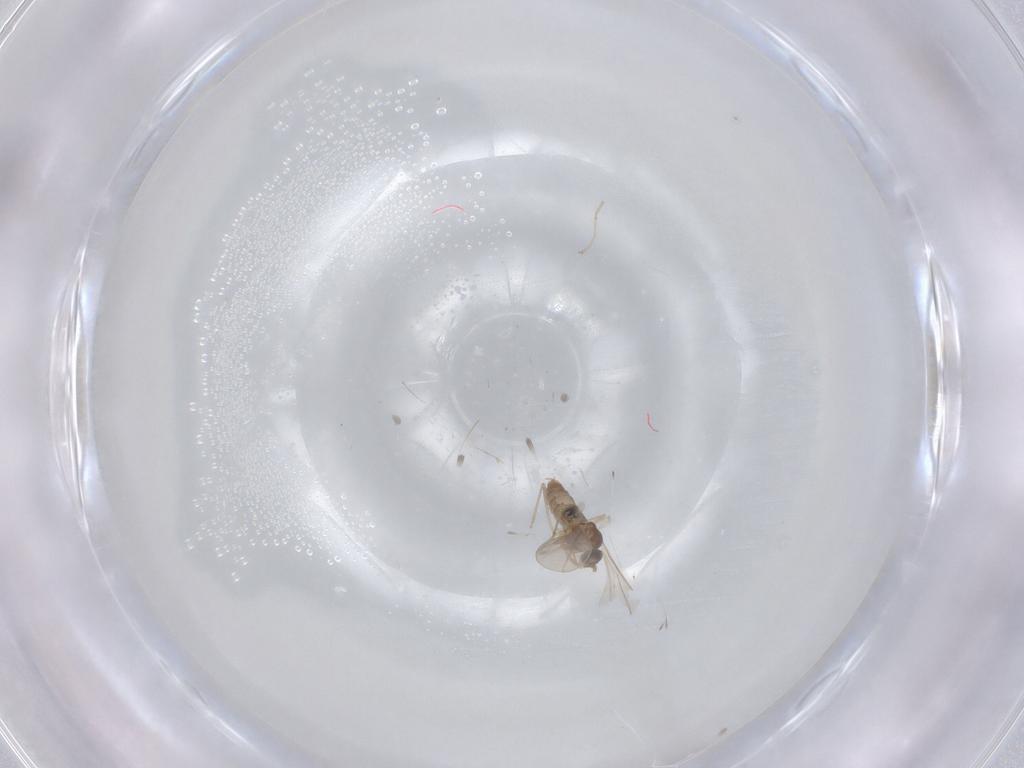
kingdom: Animalia
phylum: Arthropoda
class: Insecta
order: Diptera
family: Cecidomyiidae
